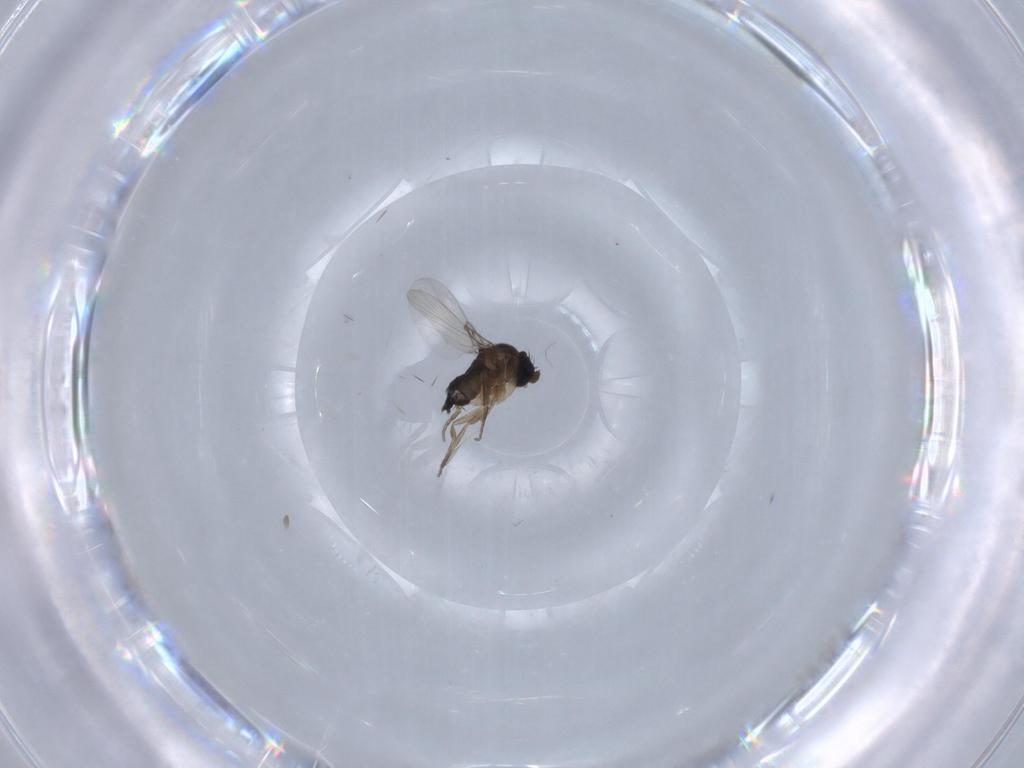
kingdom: Animalia
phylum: Arthropoda
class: Insecta
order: Diptera
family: Phoridae
